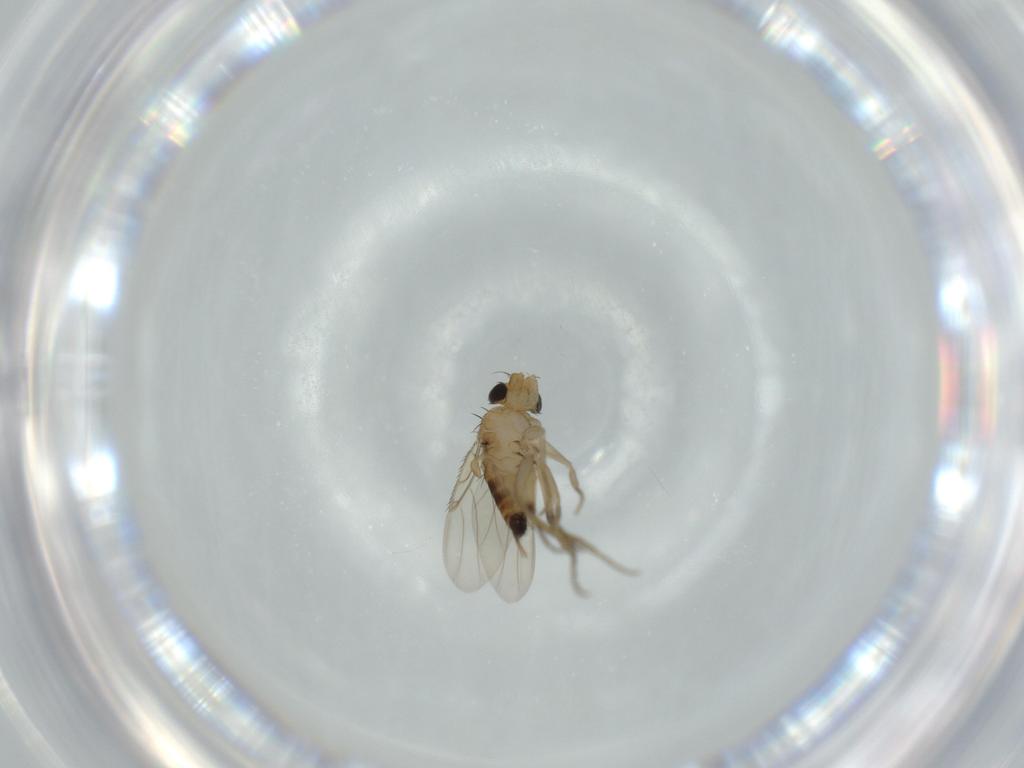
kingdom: Animalia
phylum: Arthropoda
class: Insecta
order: Diptera
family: Phoridae
